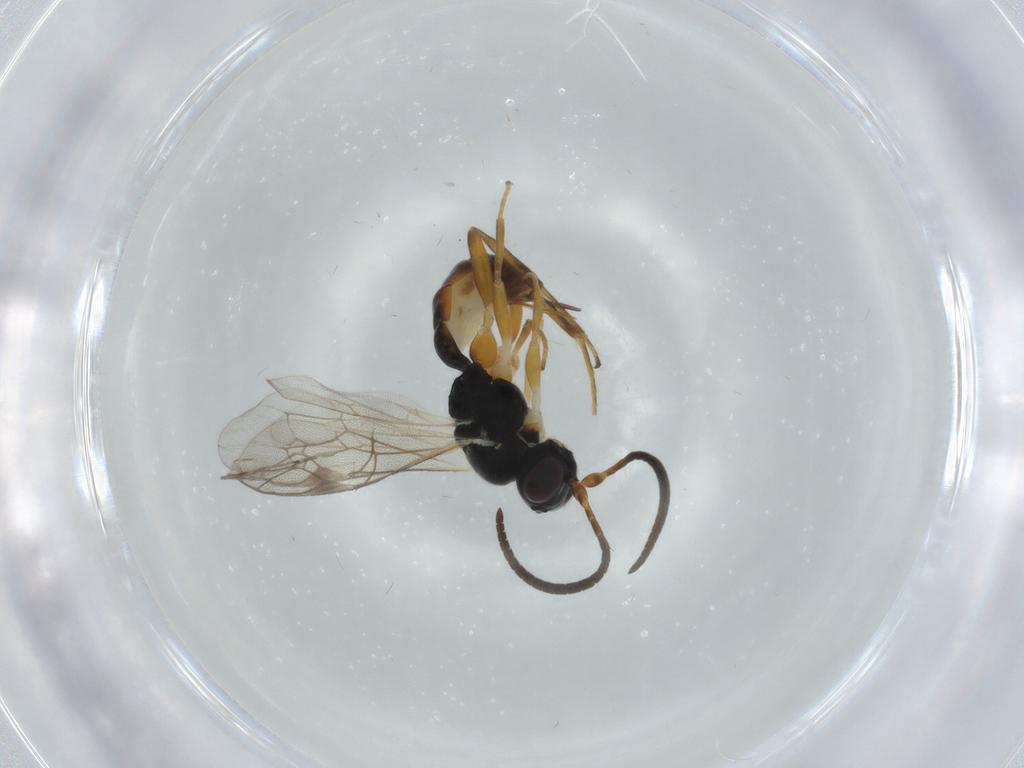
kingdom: Animalia
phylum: Arthropoda
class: Insecta
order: Hymenoptera
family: Ichneumonidae
